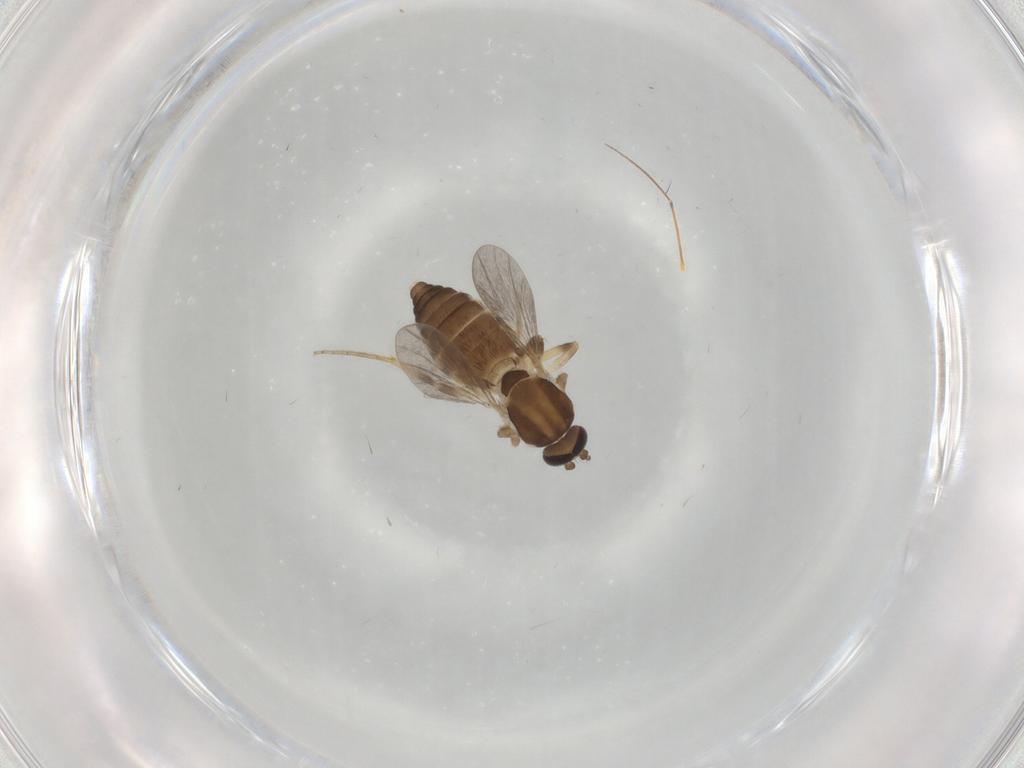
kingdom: Animalia
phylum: Arthropoda
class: Insecta
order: Diptera
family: Ceratopogonidae
